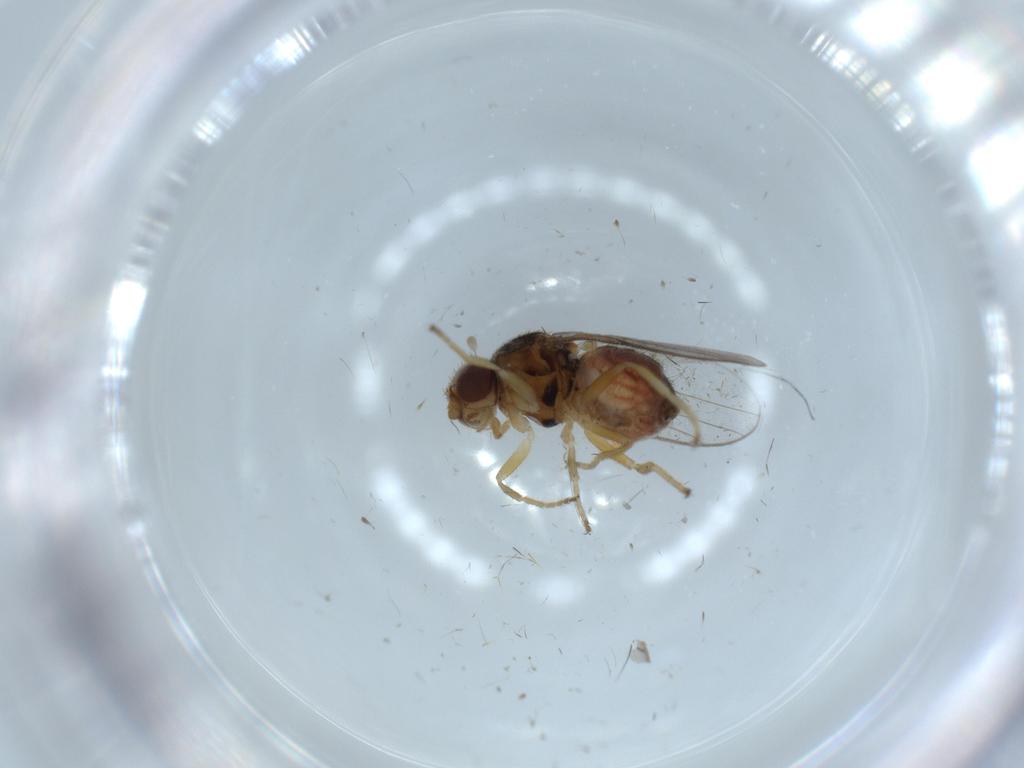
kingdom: Animalia
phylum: Arthropoda
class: Insecta
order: Diptera
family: Chloropidae
